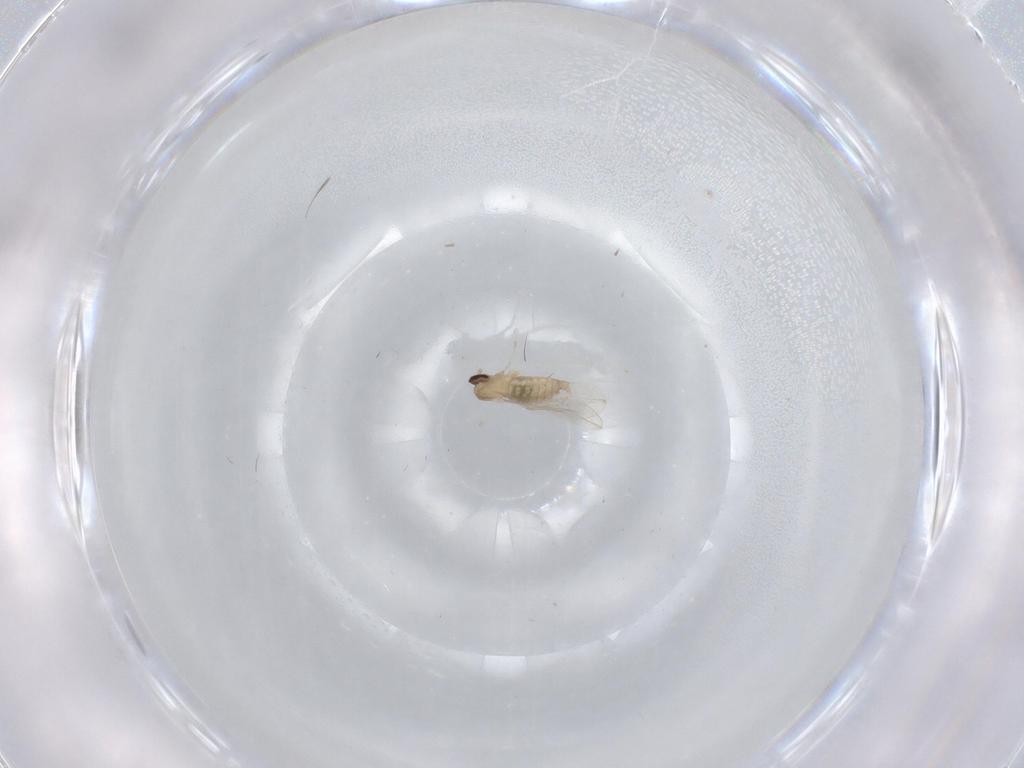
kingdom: Animalia
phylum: Arthropoda
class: Insecta
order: Diptera
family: Cecidomyiidae
